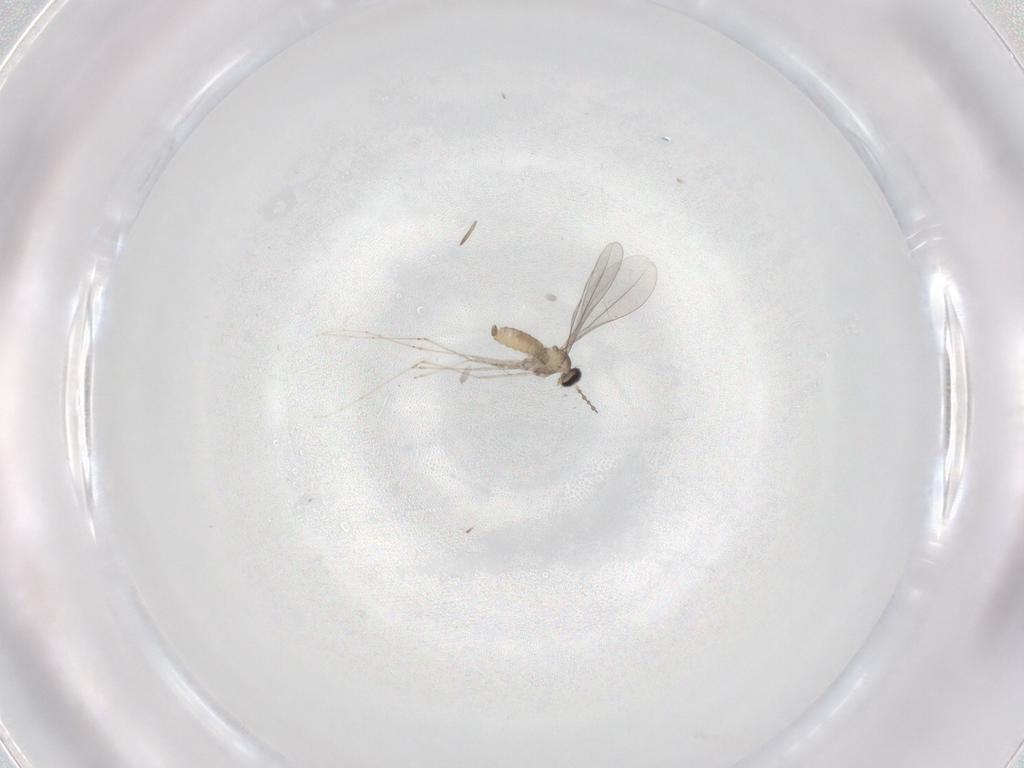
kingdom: Animalia
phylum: Arthropoda
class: Insecta
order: Diptera
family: Cecidomyiidae
